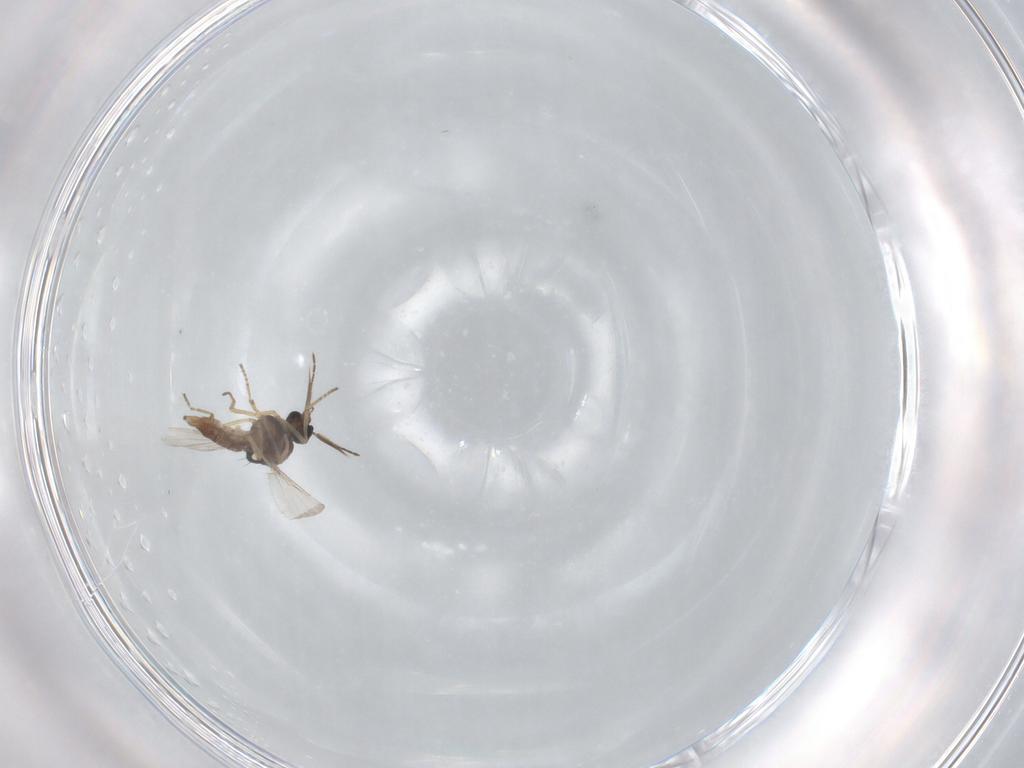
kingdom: Animalia
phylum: Arthropoda
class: Insecta
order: Diptera
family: Ceratopogonidae
